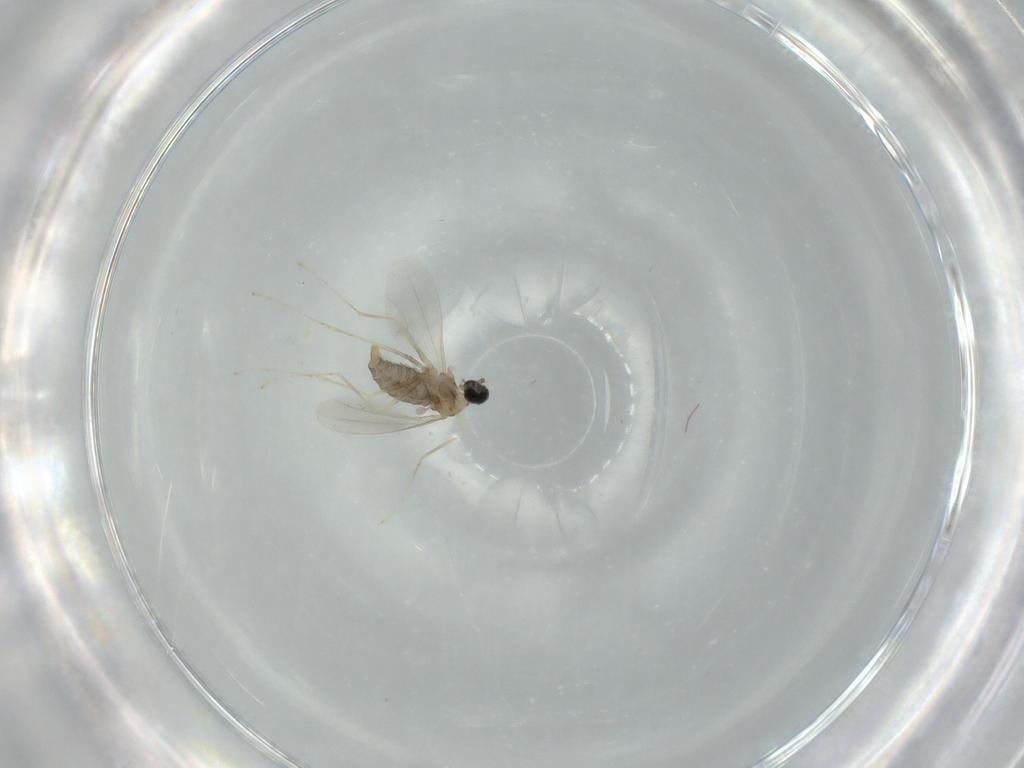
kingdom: Animalia
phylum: Arthropoda
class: Insecta
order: Diptera
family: Cecidomyiidae
